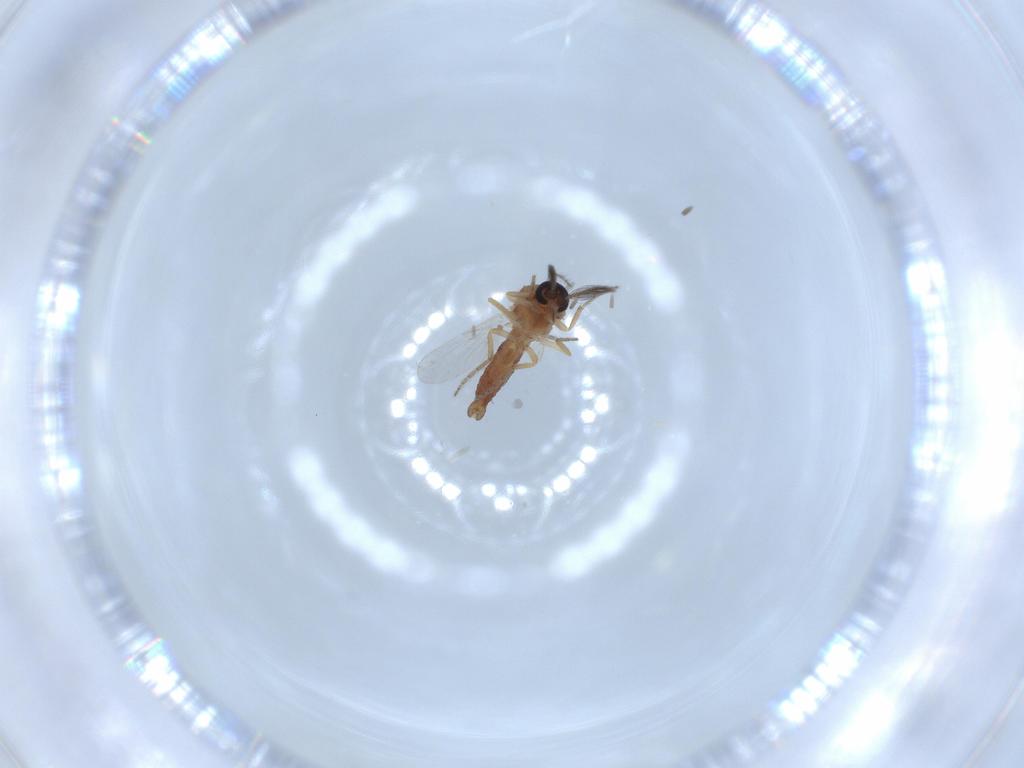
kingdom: Animalia
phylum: Arthropoda
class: Insecta
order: Diptera
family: Ceratopogonidae
